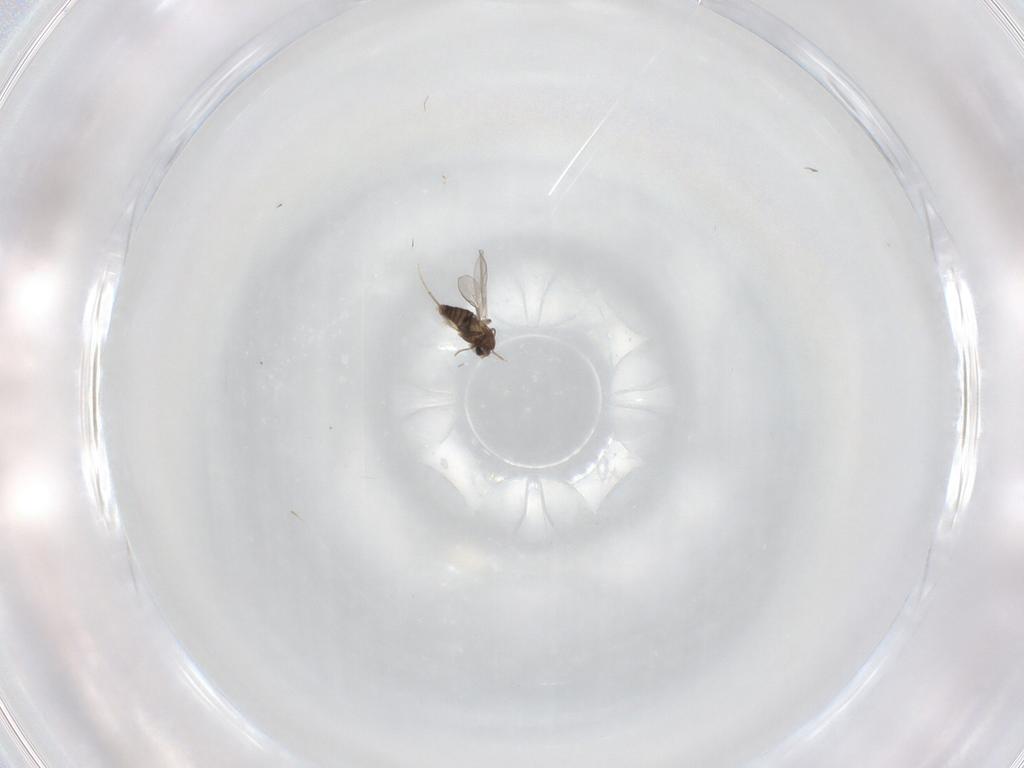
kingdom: Animalia
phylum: Arthropoda
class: Insecta
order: Diptera
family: Chironomidae
